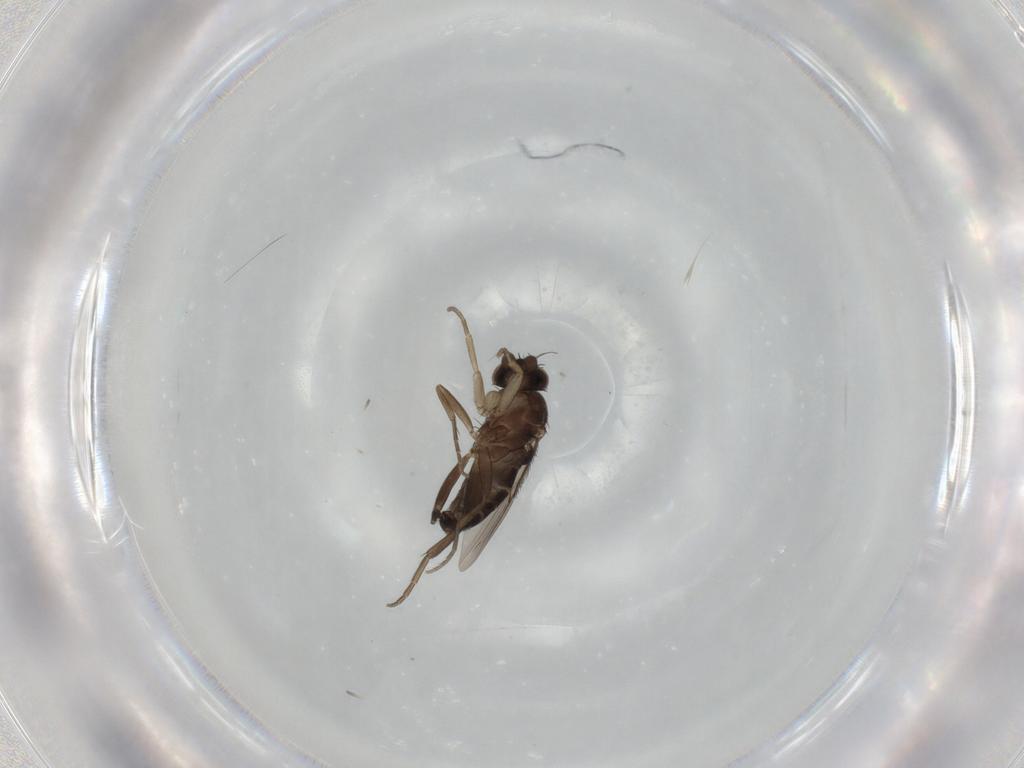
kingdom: Animalia
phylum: Arthropoda
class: Insecta
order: Diptera
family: Phoridae
